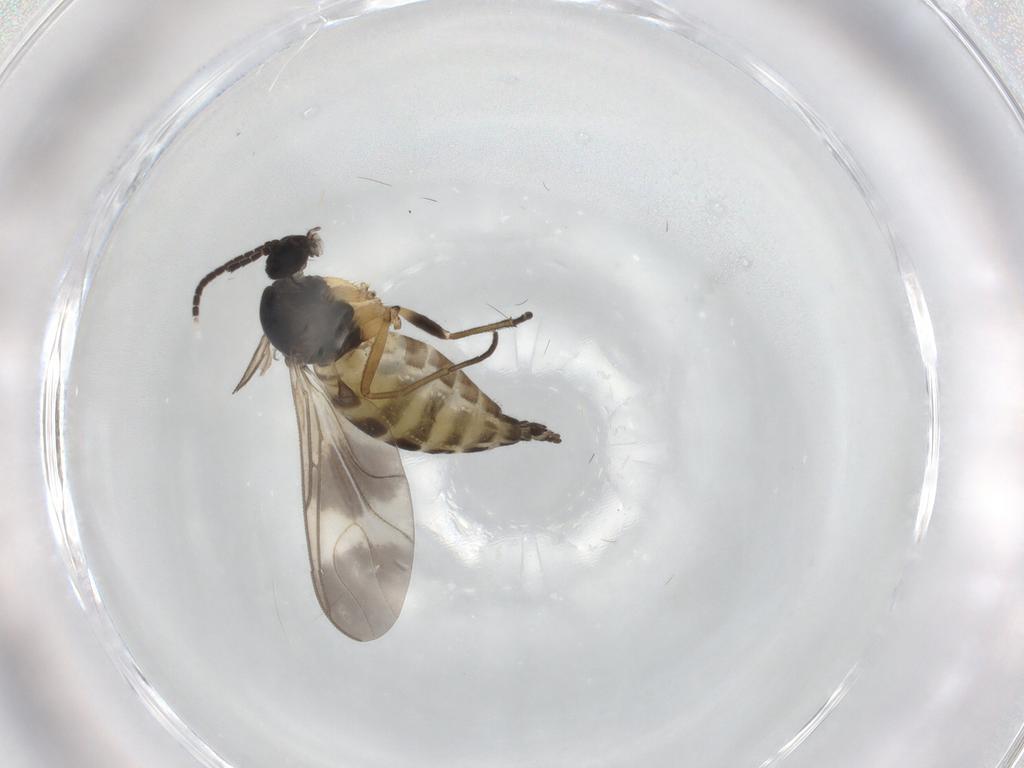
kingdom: Animalia
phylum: Arthropoda
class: Insecta
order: Diptera
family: Sciaridae
